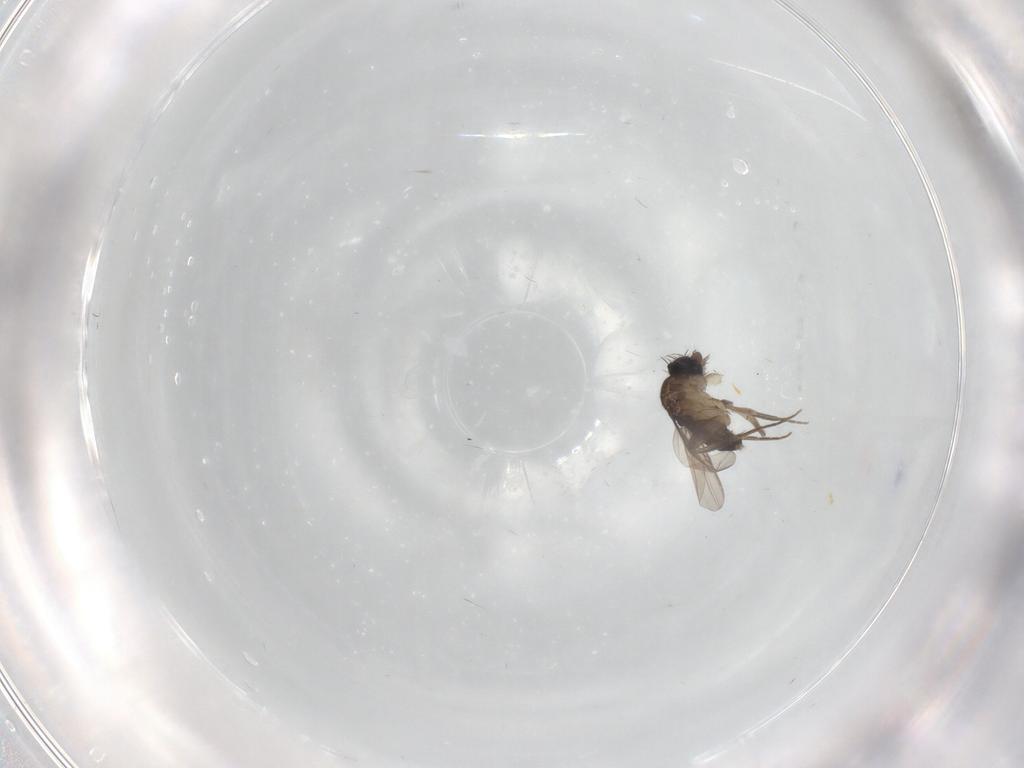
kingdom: Animalia
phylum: Arthropoda
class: Insecta
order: Diptera
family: Phoridae
